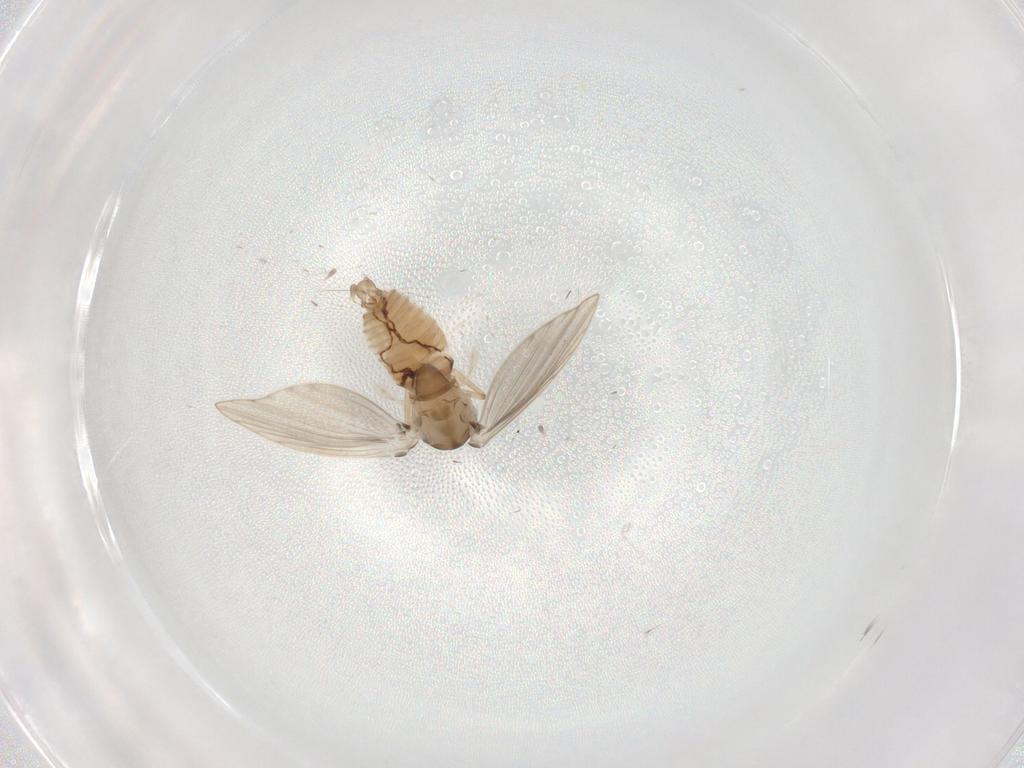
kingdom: Animalia
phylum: Arthropoda
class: Insecta
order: Diptera
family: Psychodidae
